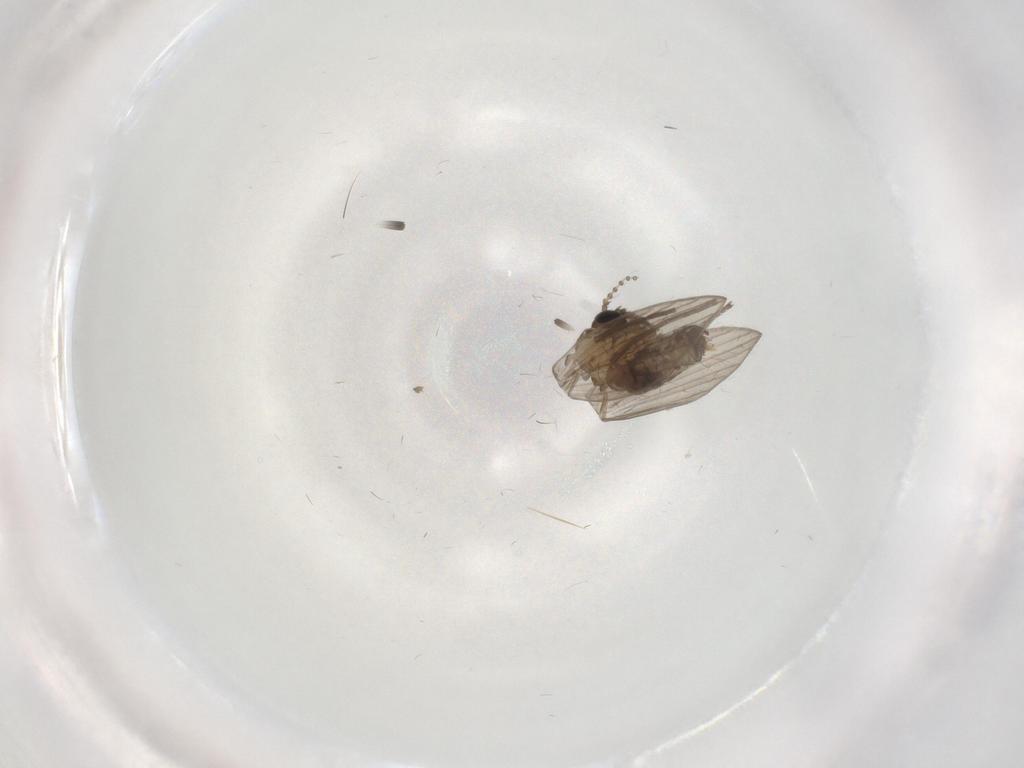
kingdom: Animalia
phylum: Arthropoda
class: Insecta
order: Diptera
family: Psychodidae
